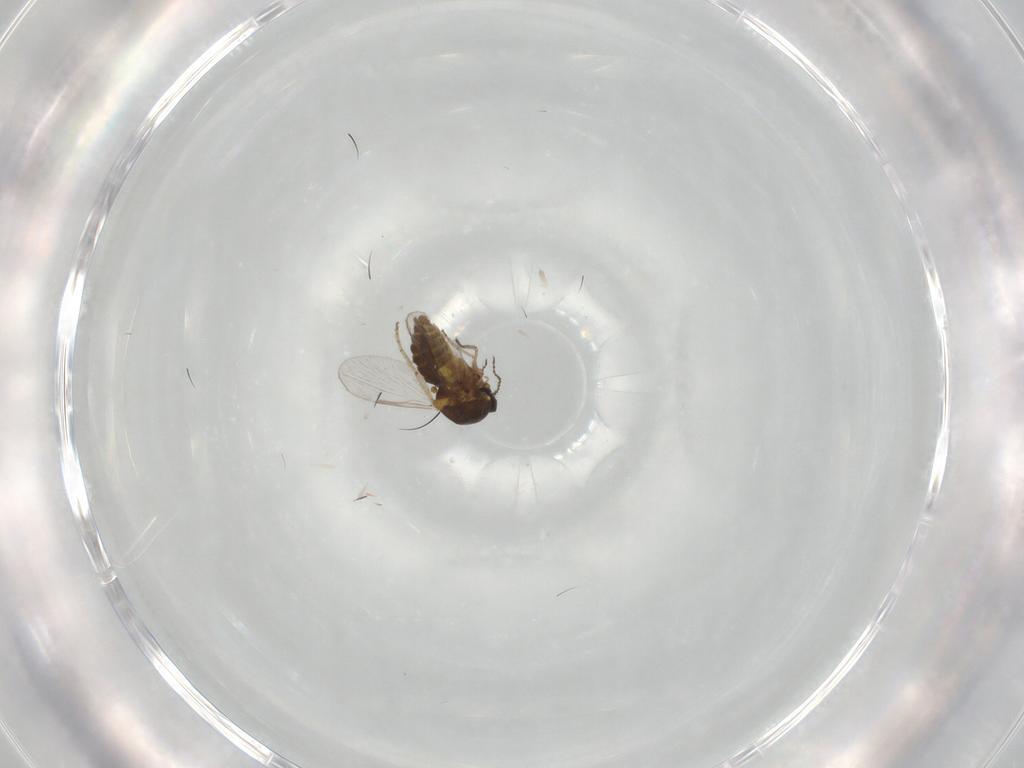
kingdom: Animalia
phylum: Arthropoda
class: Insecta
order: Diptera
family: Ceratopogonidae
